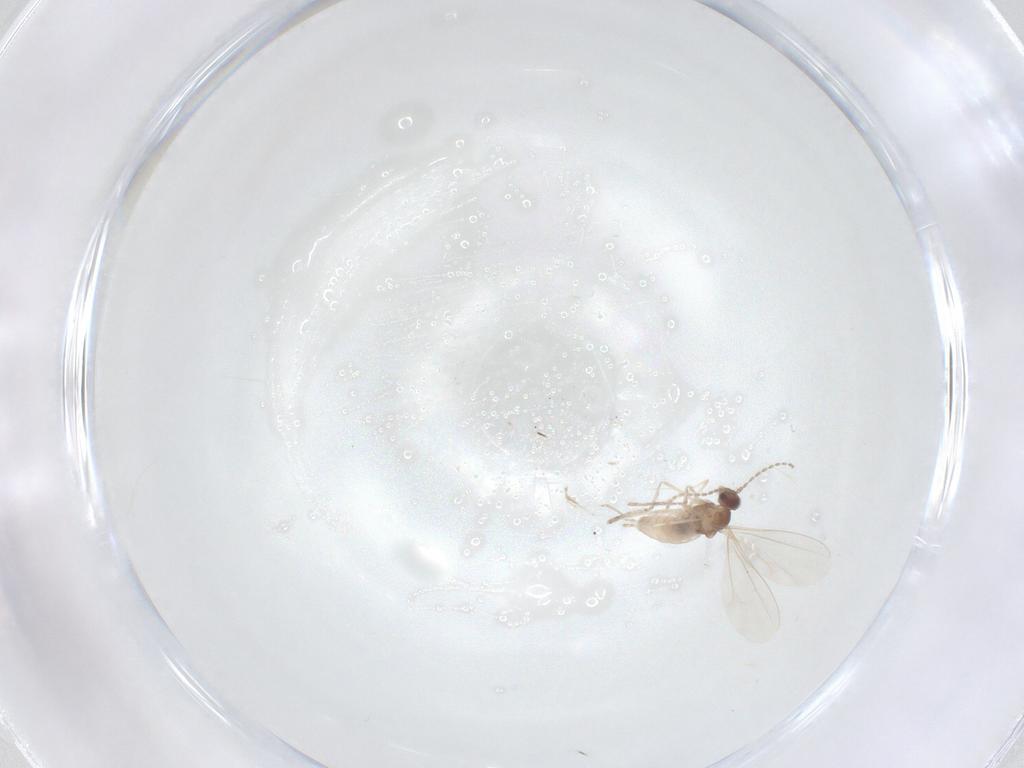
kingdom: Animalia
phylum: Arthropoda
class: Insecta
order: Diptera
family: Cecidomyiidae
